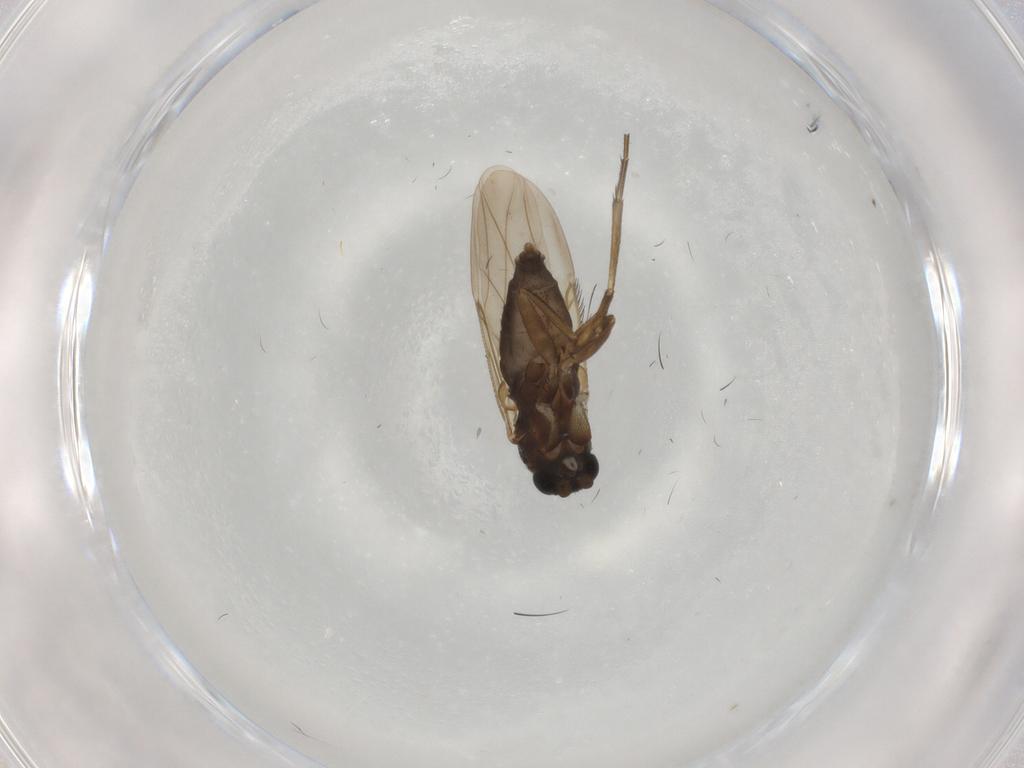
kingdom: Animalia
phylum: Arthropoda
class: Insecta
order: Diptera
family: Phoridae
